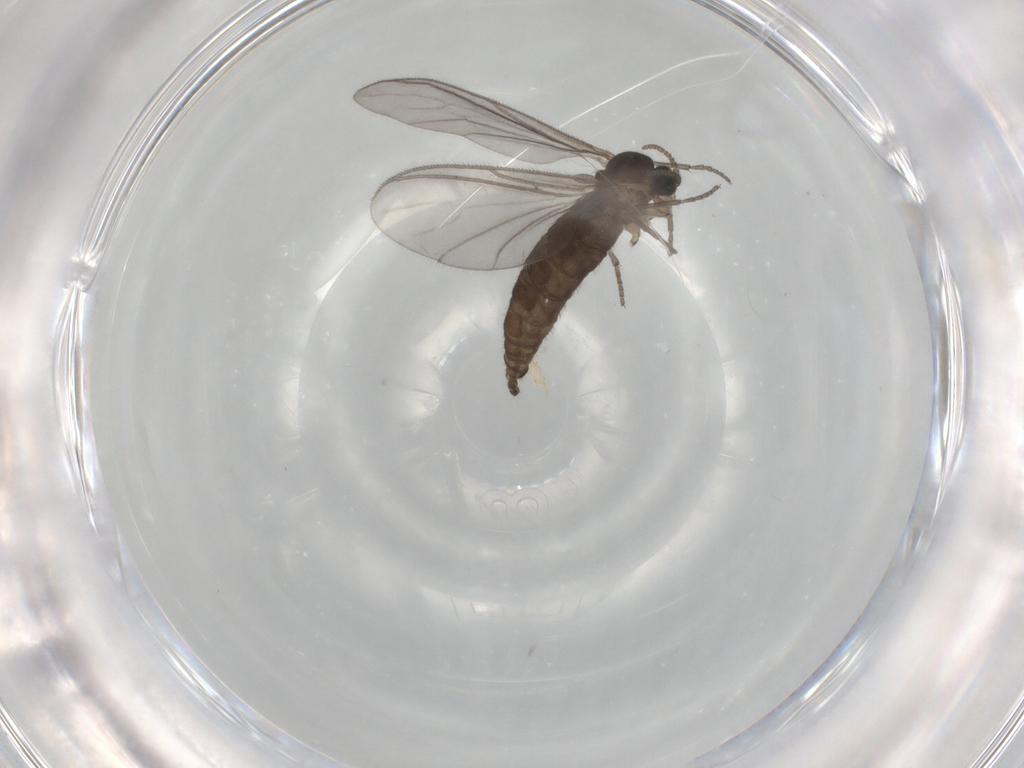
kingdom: Animalia
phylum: Arthropoda
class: Insecta
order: Diptera
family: Sciaridae
